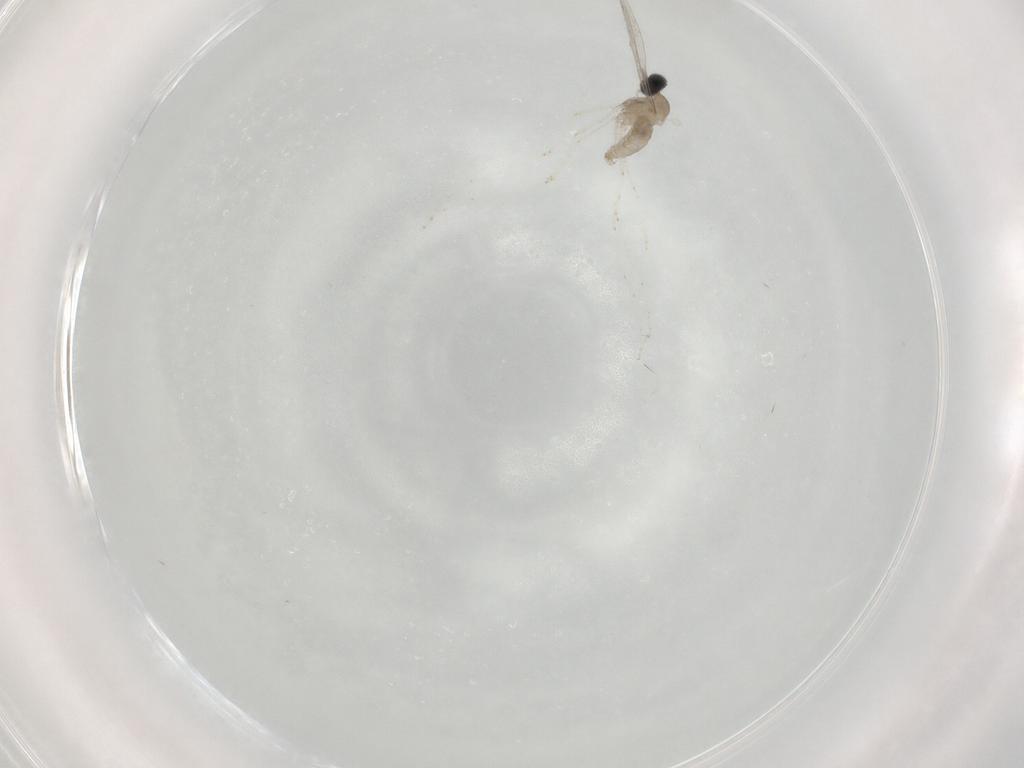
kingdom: Animalia
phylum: Arthropoda
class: Insecta
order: Diptera
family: Cecidomyiidae
